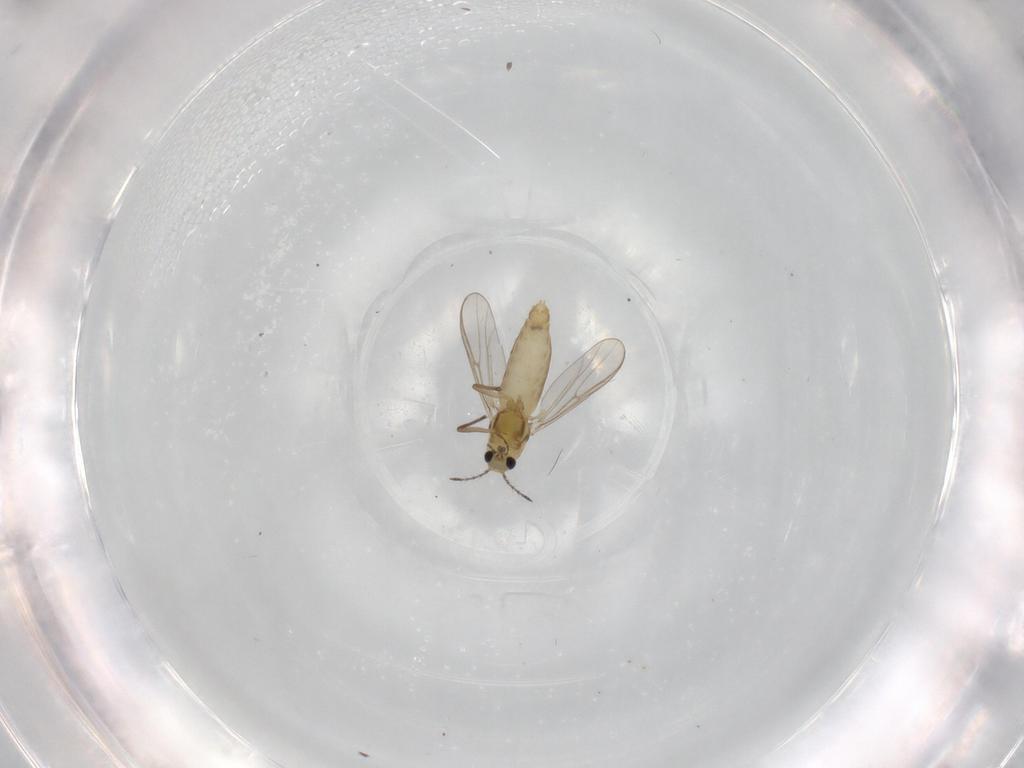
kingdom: Animalia
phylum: Arthropoda
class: Insecta
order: Diptera
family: Chironomidae
